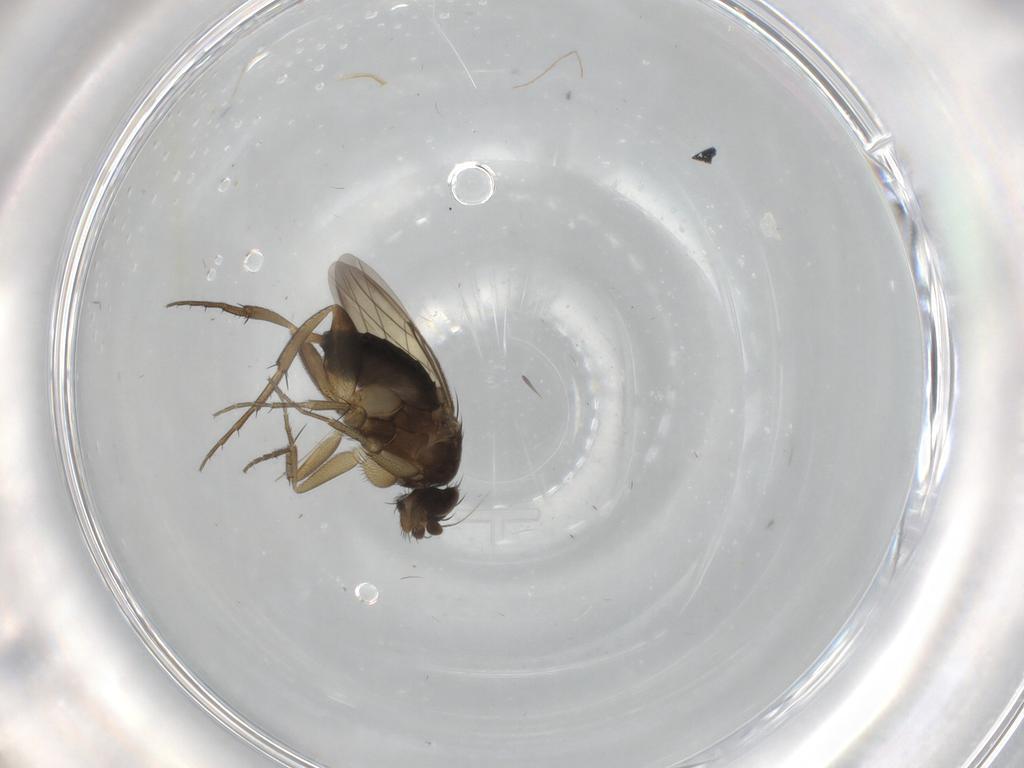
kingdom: Animalia
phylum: Arthropoda
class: Insecta
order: Diptera
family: Phoridae
